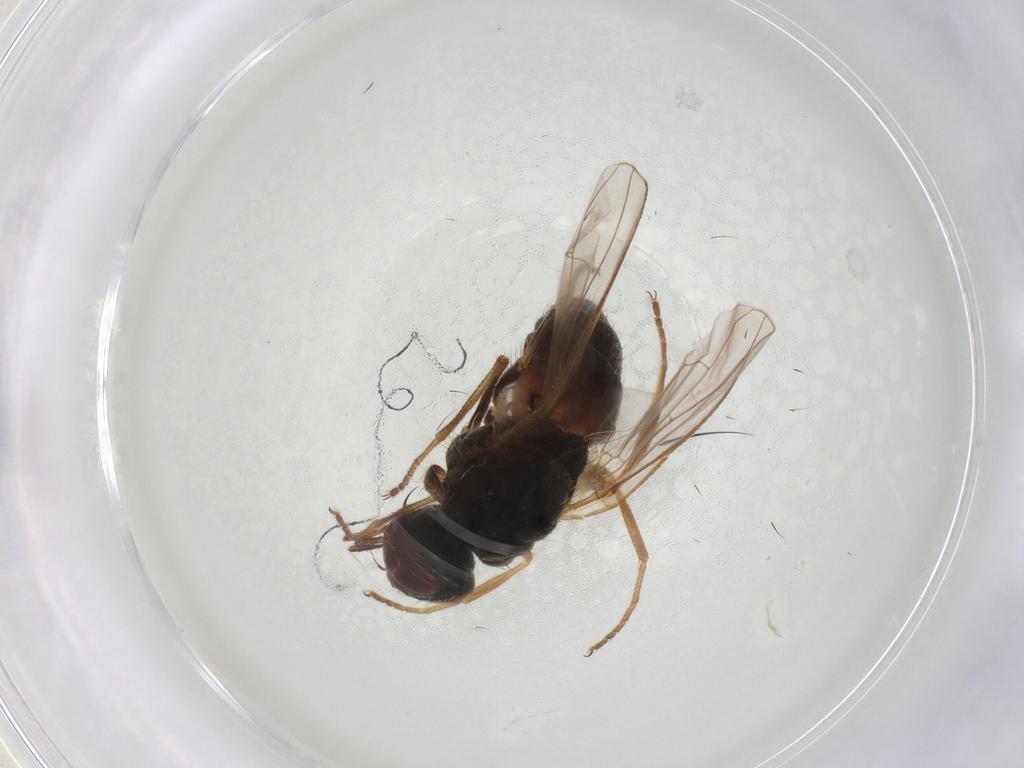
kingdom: Animalia
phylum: Arthropoda
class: Insecta
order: Diptera
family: Muscidae
